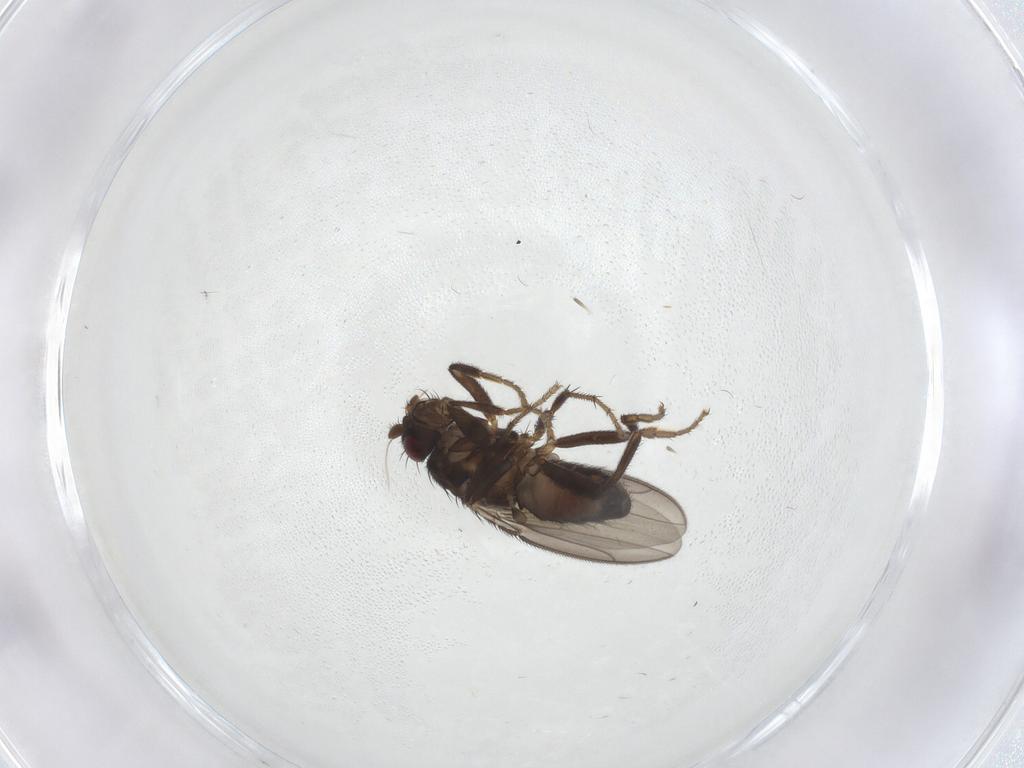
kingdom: Animalia
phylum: Arthropoda
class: Insecta
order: Diptera
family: Sphaeroceridae
